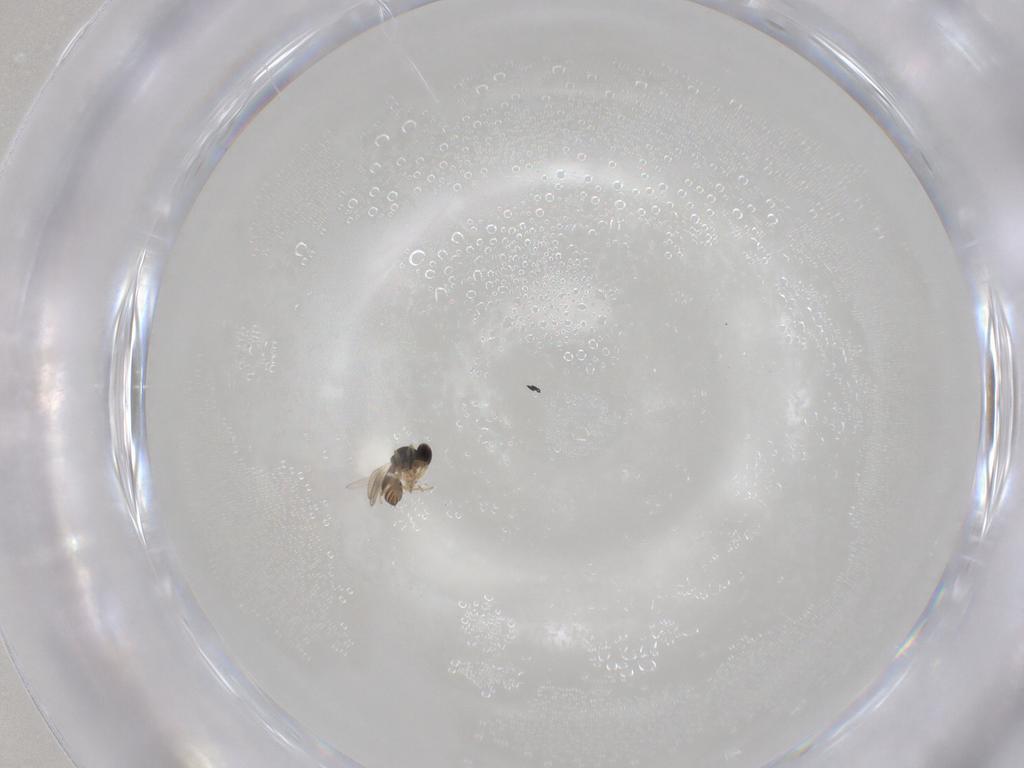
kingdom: Animalia
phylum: Arthropoda
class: Insecta
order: Hymenoptera
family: Platygastridae
